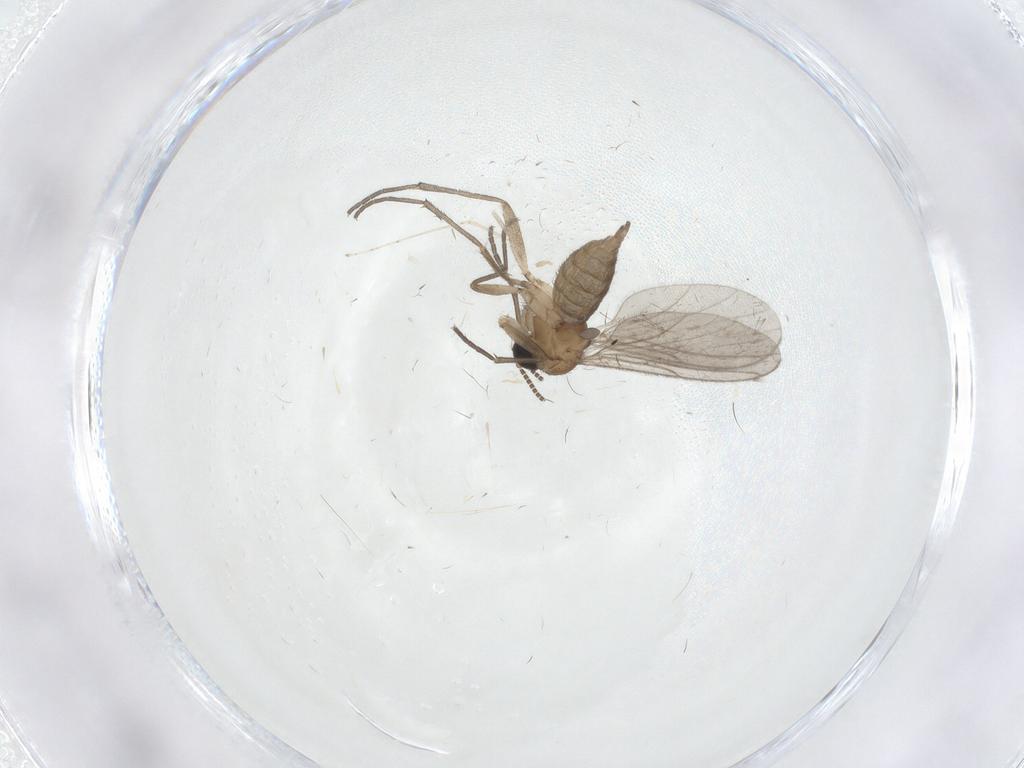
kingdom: Animalia
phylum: Arthropoda
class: Insecta
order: Diptera
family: Sciaridae
